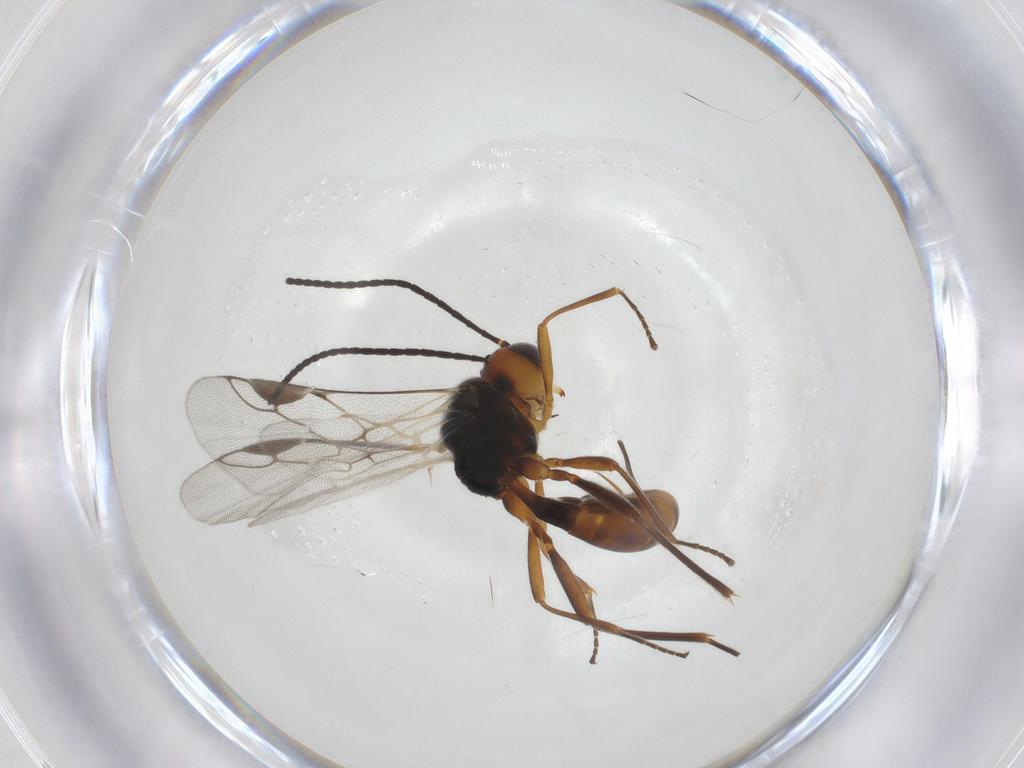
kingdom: Animalia
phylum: Arthropoda
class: Insecta
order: Hymenoptera
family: Braconidae
